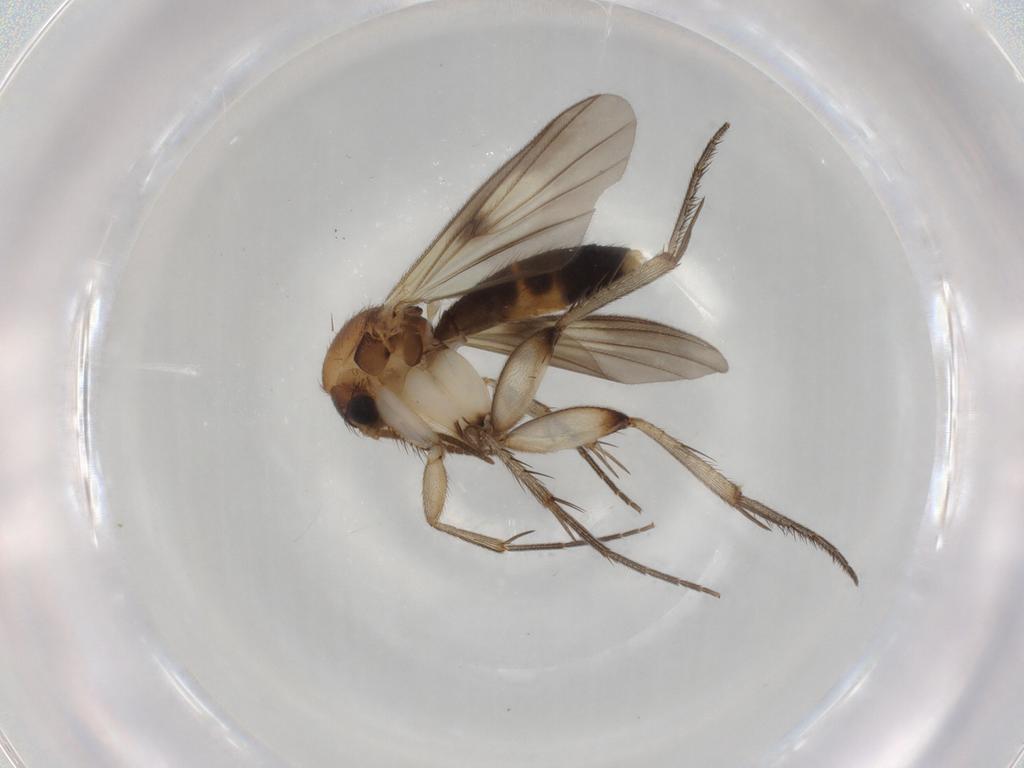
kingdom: Animalia
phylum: Arthropoda
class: Insecta
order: Diptera
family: Mycetophilidae
